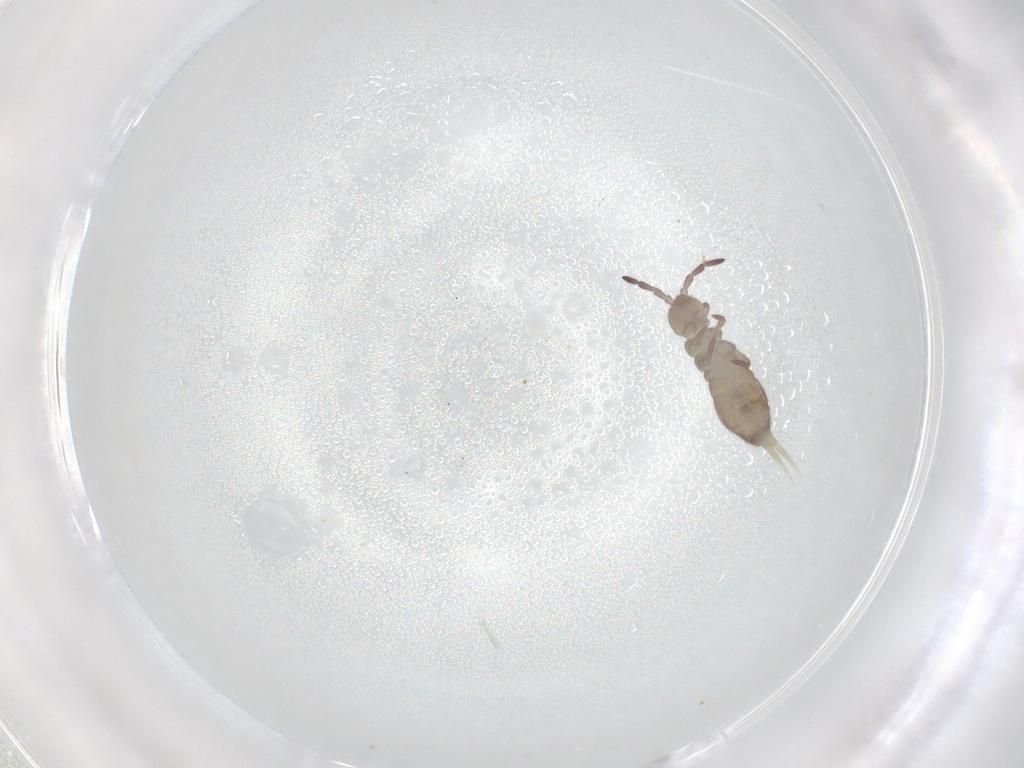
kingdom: Animalia
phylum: Arthropoda
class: Collembola
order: Entomobryomorpha
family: Isotomidae
